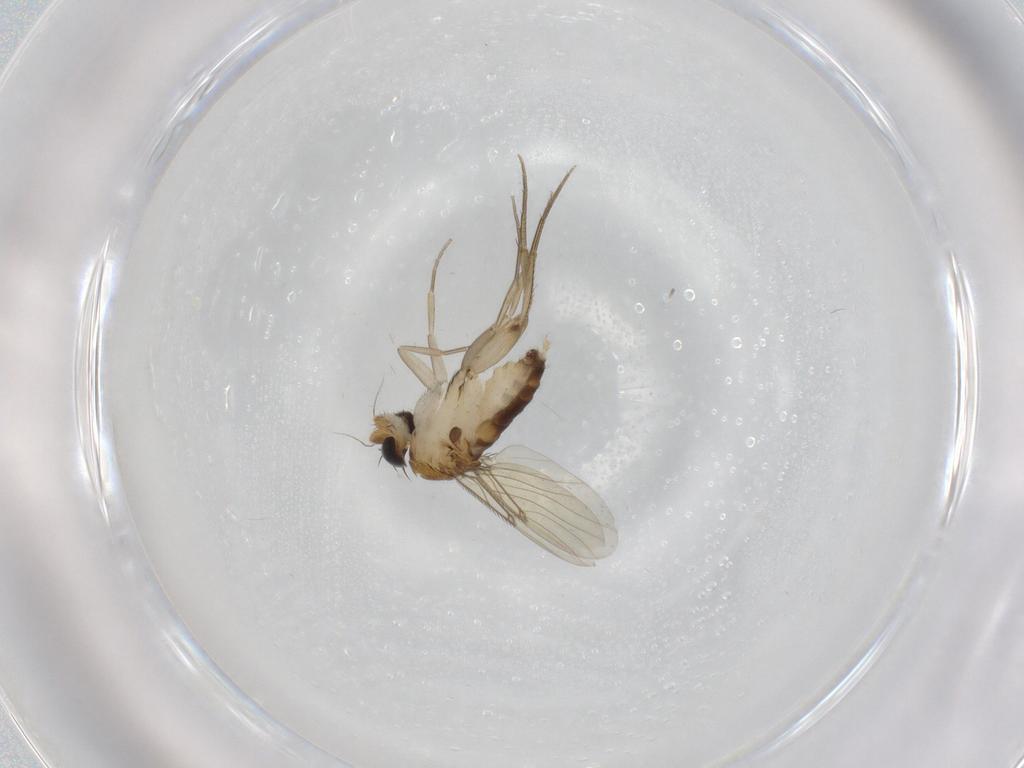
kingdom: Animalia
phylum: Arthropoda
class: Insecta
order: Diptera
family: Phoridae
